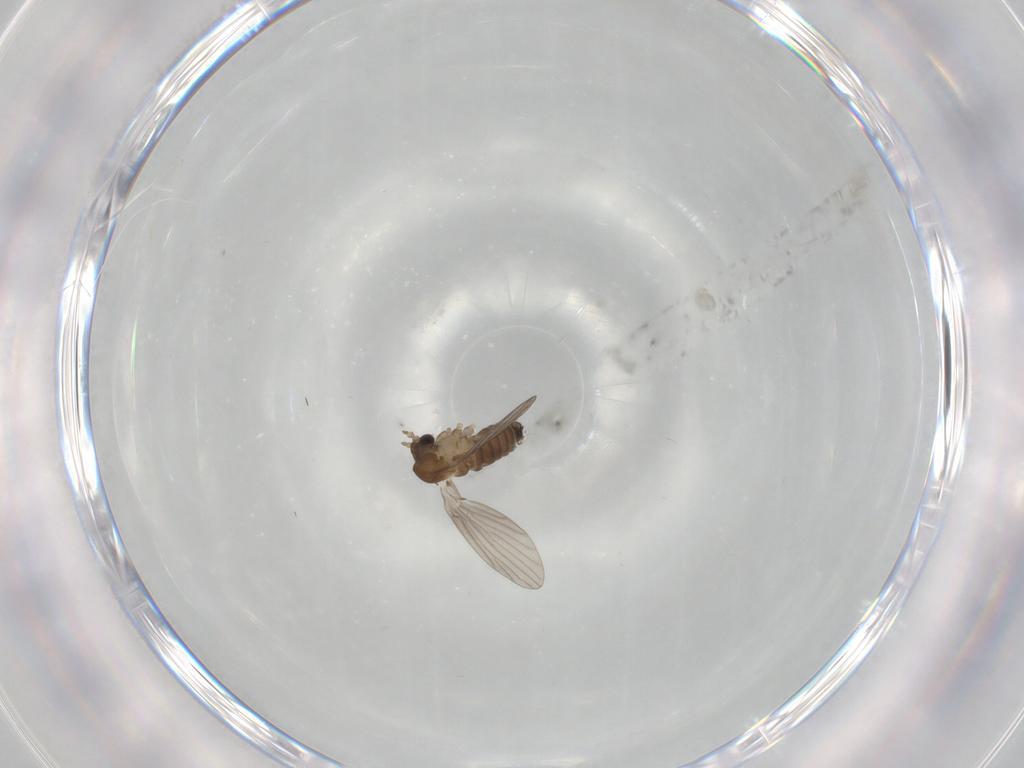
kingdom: Animalia
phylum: Arthropoda
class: Insecta
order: Diptera
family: Cecidomyiidae
